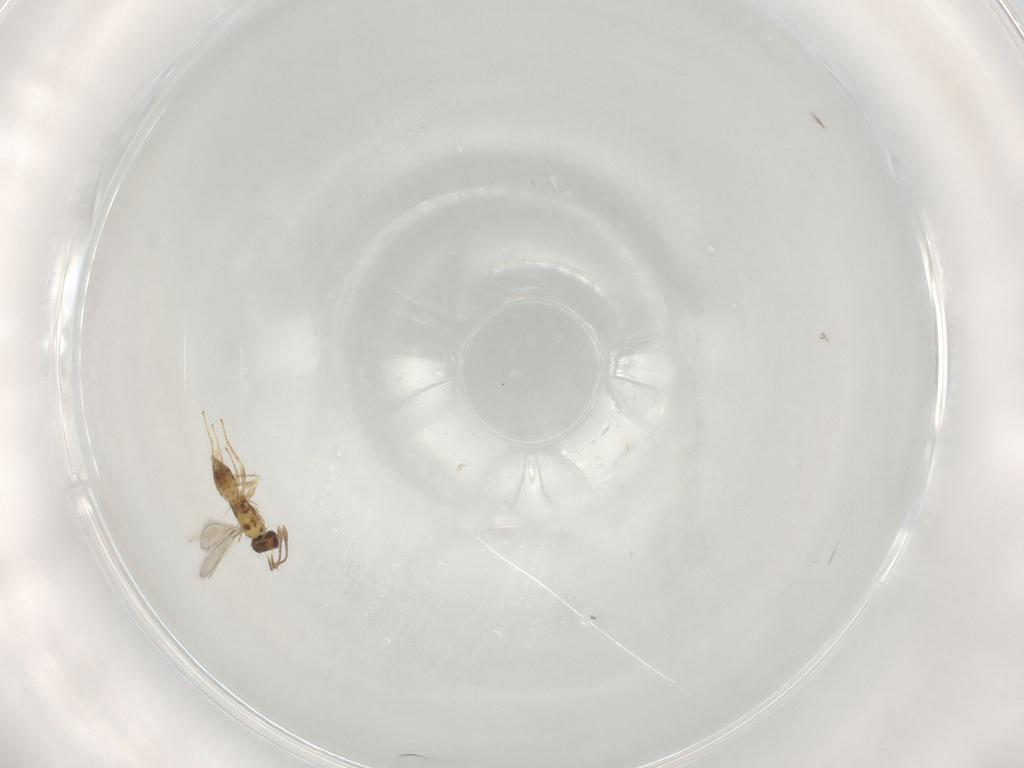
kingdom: Animalia
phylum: Arthropoda
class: Insecta
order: Hymenoptera
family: Mymaridae
